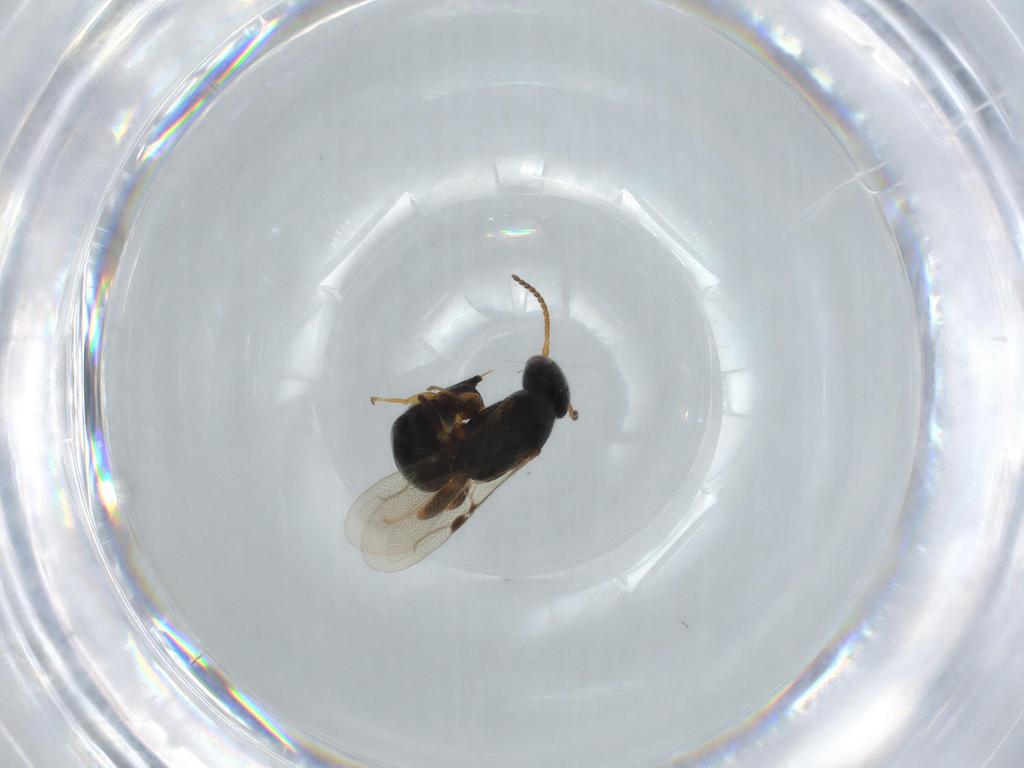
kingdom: Animalia
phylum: Arthropoda
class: Insecta
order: Hymenoptera
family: Bethylidae
